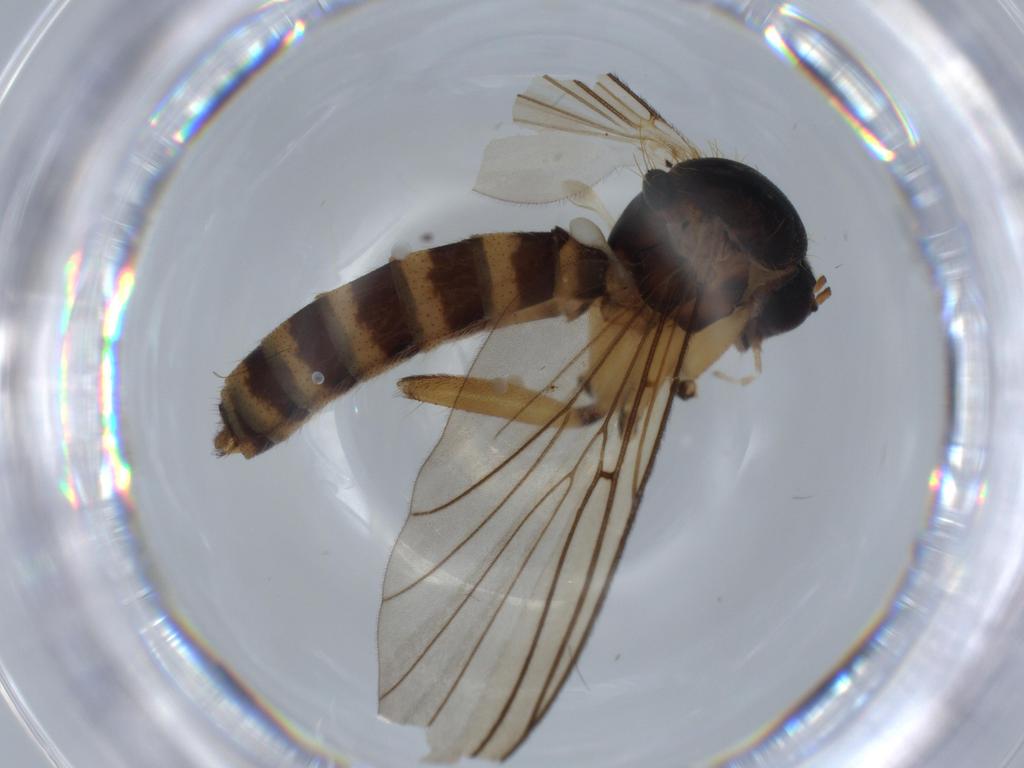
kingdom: Animalia
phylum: Arthropoda
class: Insecta
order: Diptera
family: Mycetophilidae
